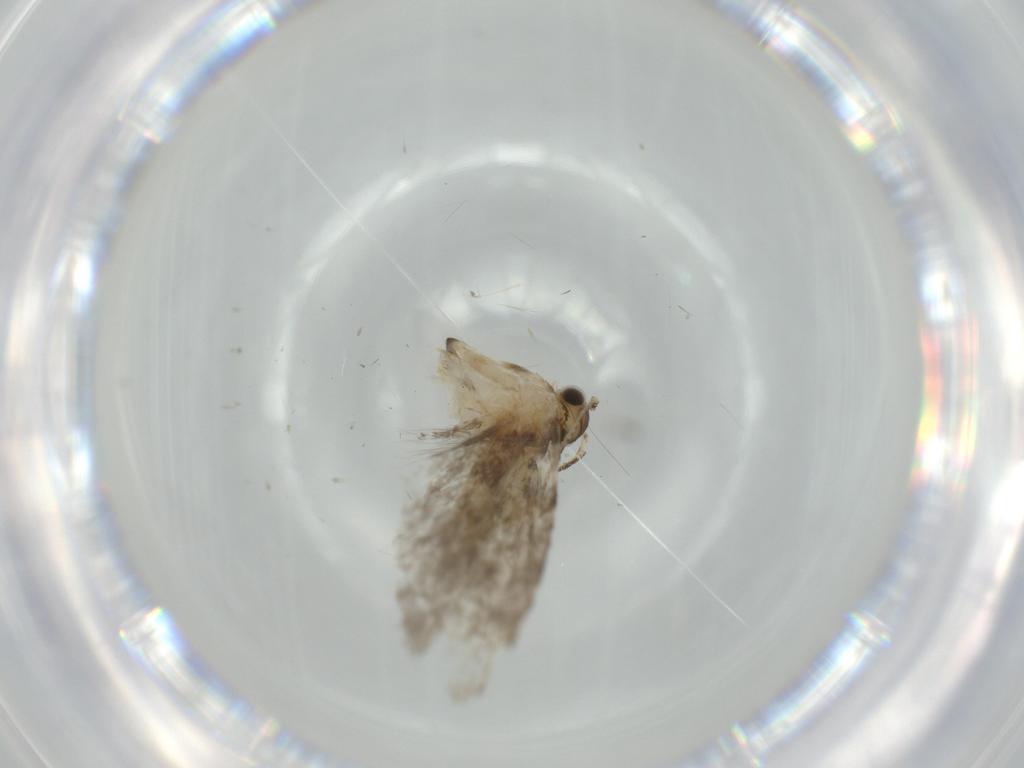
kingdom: Animalia
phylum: Arthropoda
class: Insecta
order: Lepidoptera
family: Tineidae
